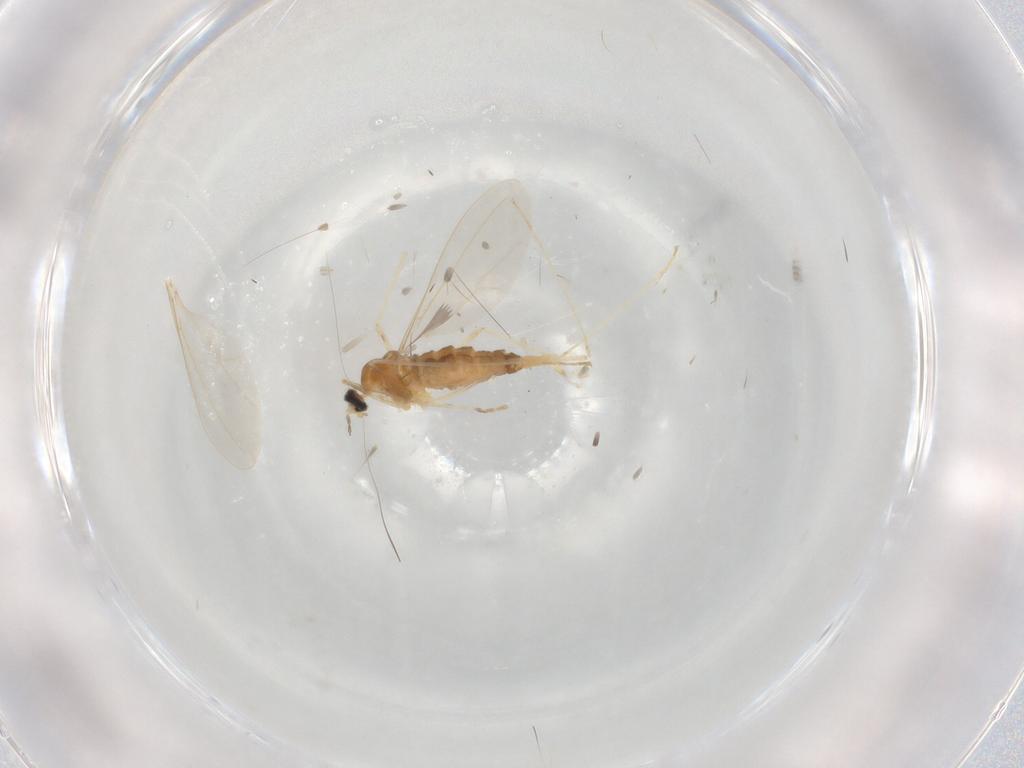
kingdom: Animalia
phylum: Arthropoda
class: Insecta
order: Diptera
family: Cecidomyiidae
